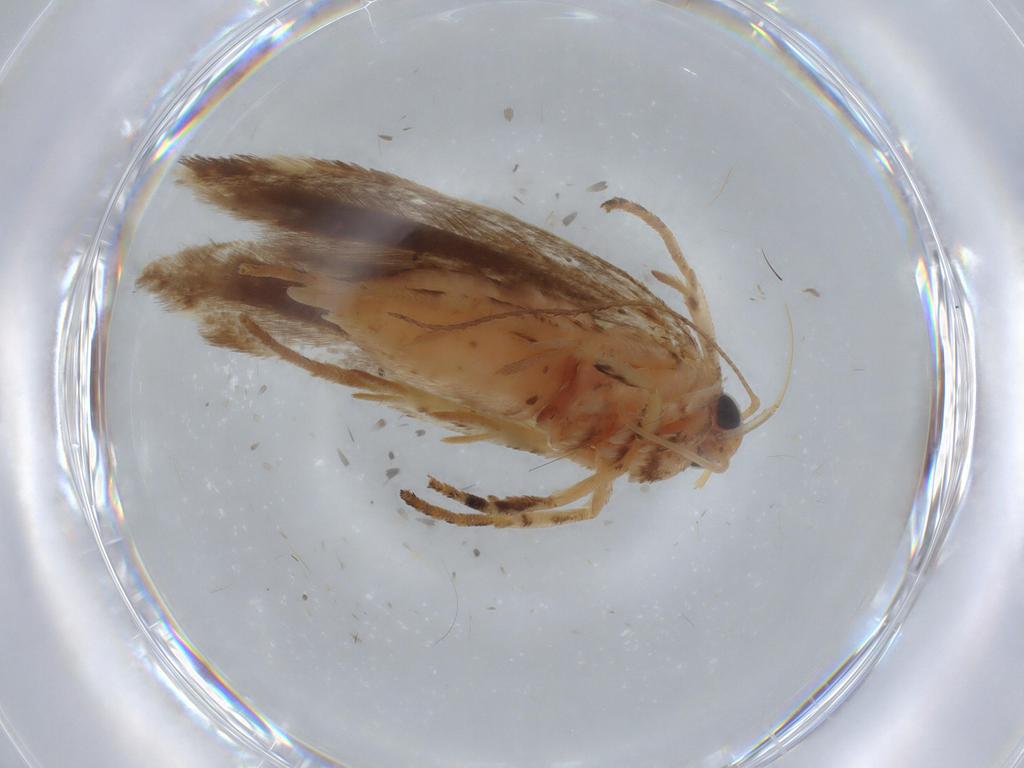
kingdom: Animalia
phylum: Arthropoda
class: Insecta
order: Lepidoptera
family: Gelechiidae
